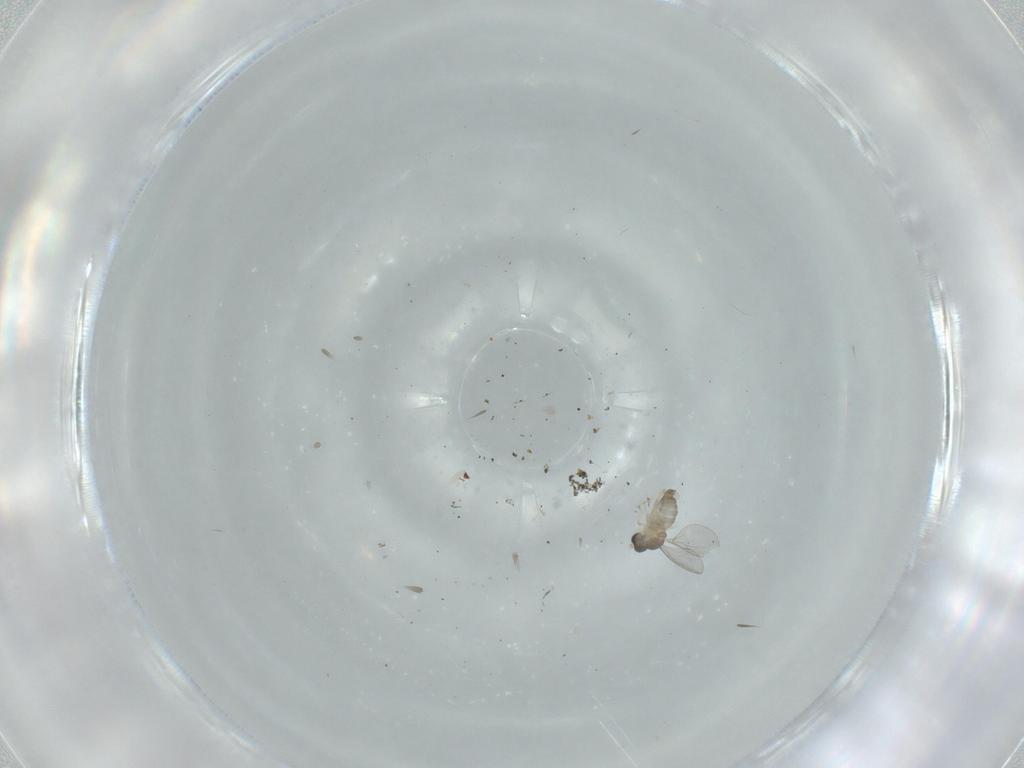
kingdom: Animalia
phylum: Arthropoda
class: Insecta
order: Diptera
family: Cecidomyiidae
